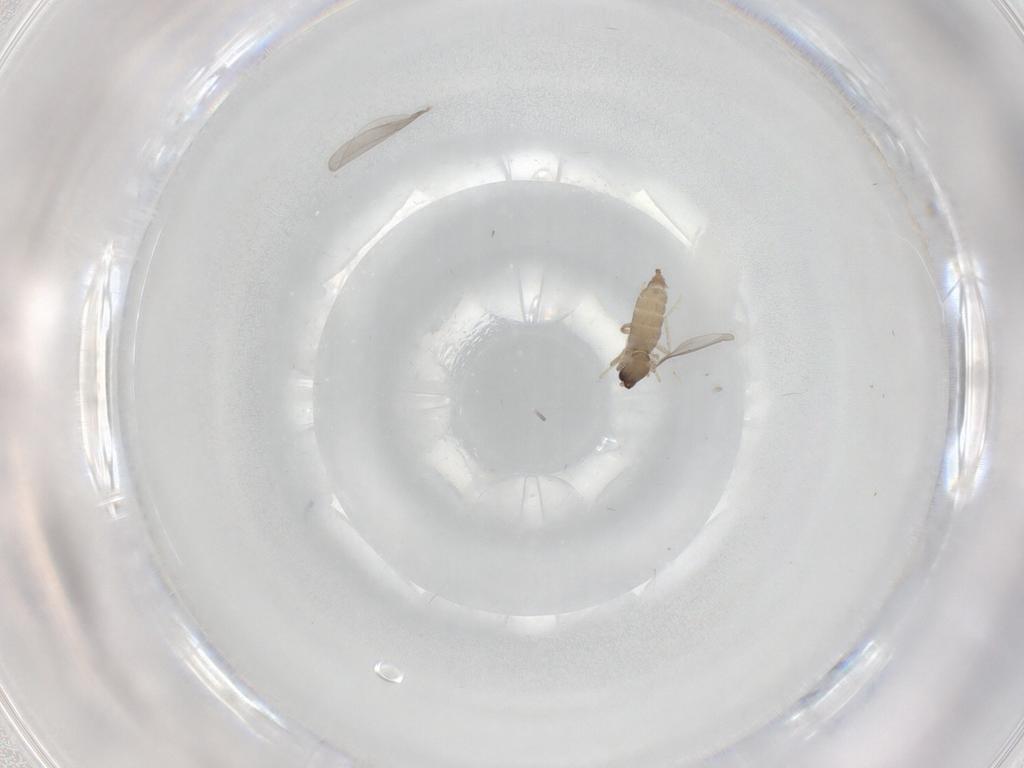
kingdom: Animalia
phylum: Arthropoda
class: Insecta
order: Diptera
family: Cecidomyiidae
